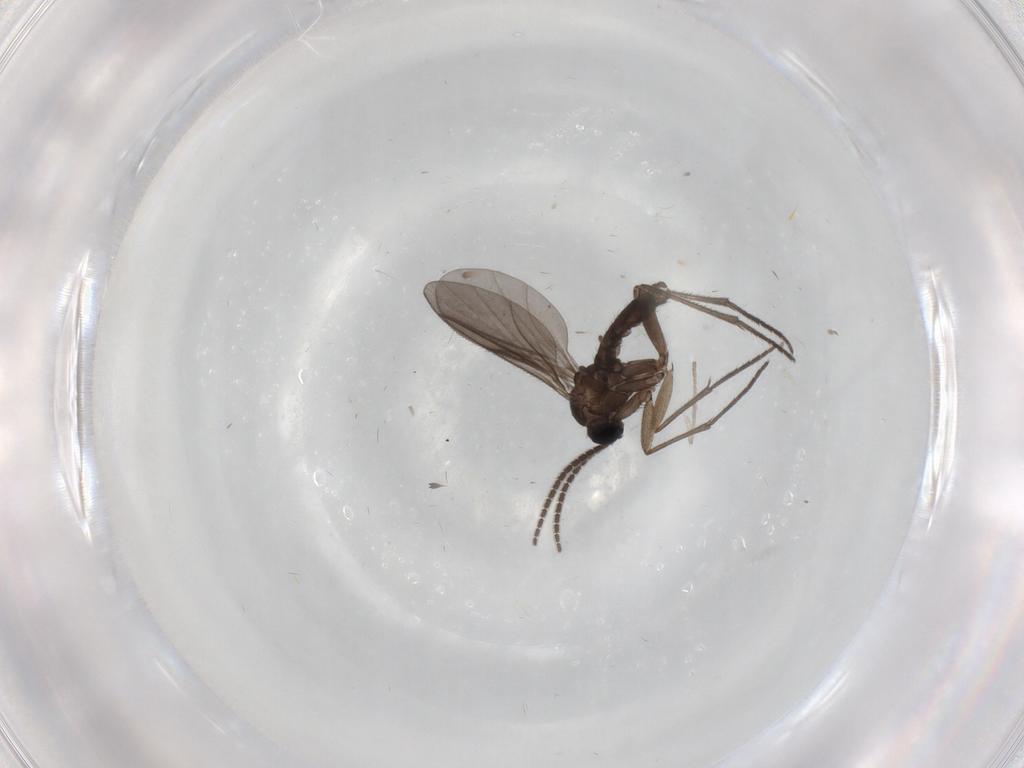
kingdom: Animalia
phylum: Arthropoda
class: Insecta
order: Diptera
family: Sciaridae
